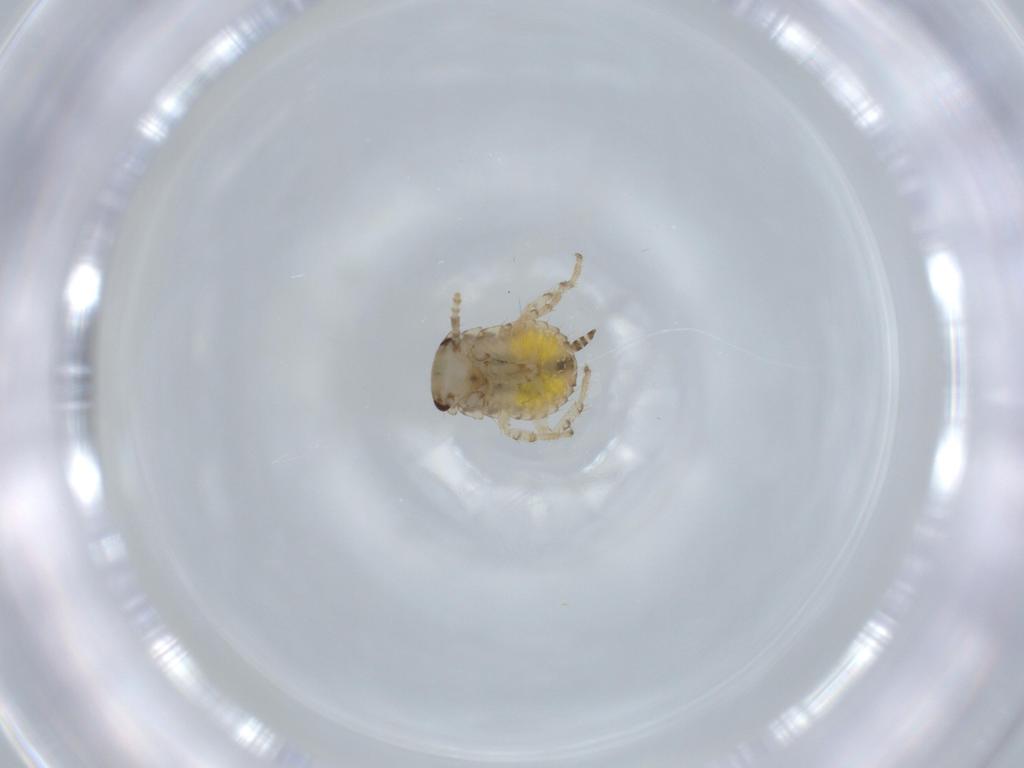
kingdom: Animalia
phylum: Arthropoda
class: Insecta
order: Blattodea
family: Ectobiidae
